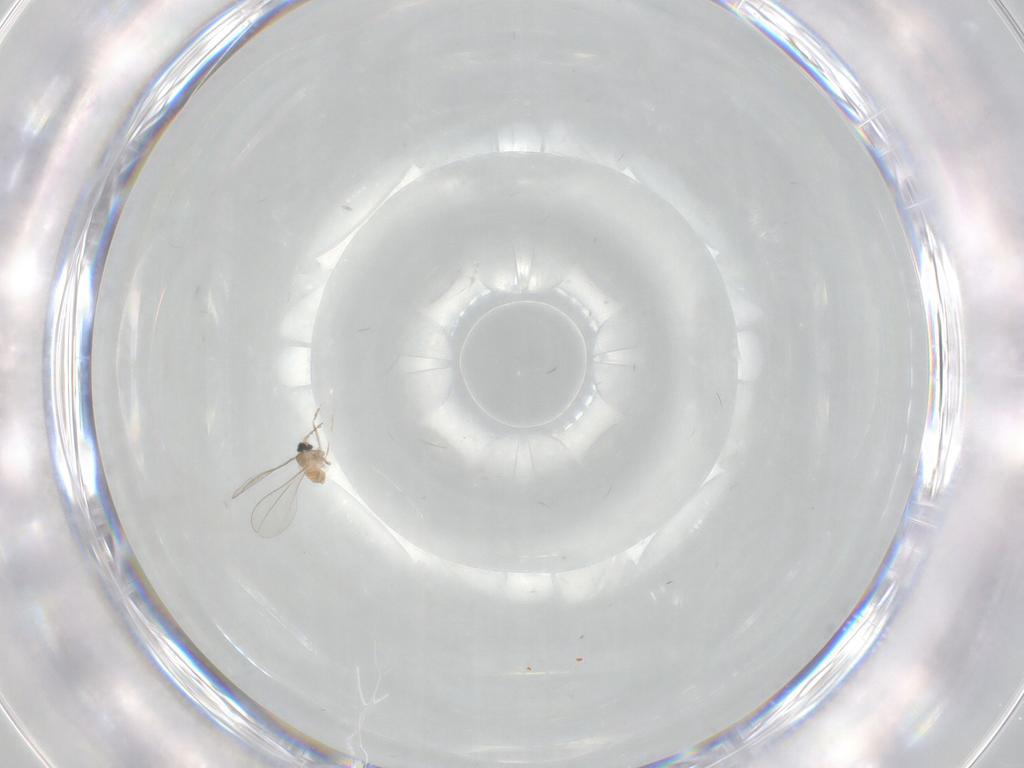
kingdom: Animalia
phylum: Arthropoda
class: Insecta
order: Diptera
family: Cecidomyiidae
